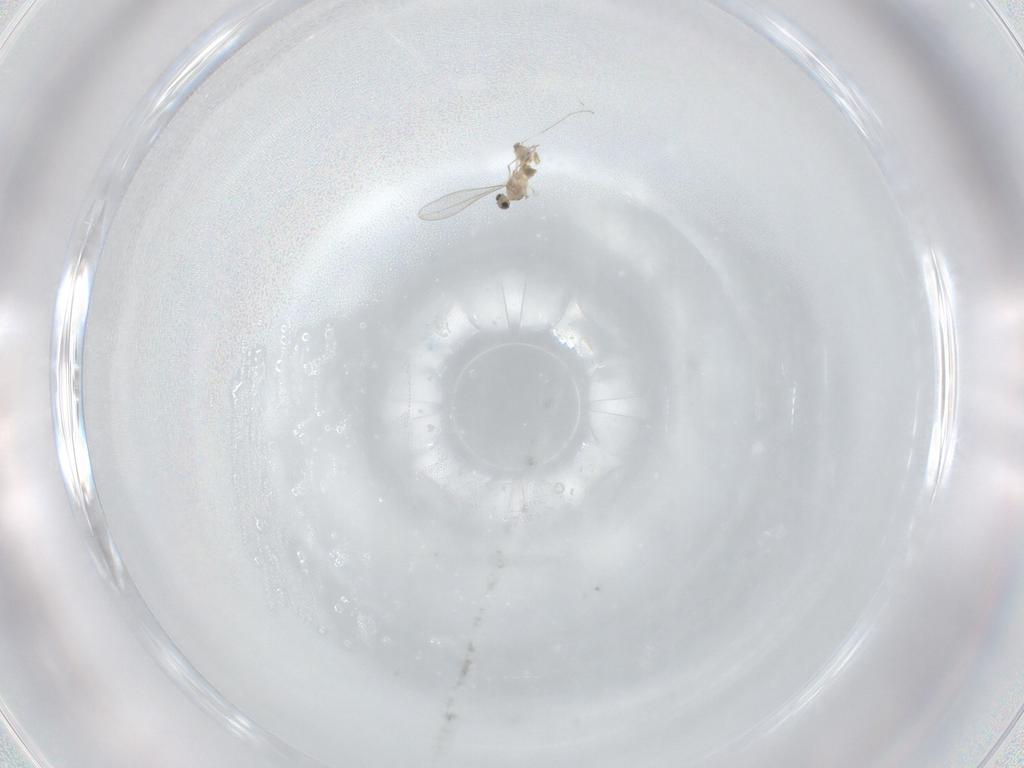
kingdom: Animalia
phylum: Arthropoda
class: Insecta
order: Diptera
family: Cecidomyiidae
